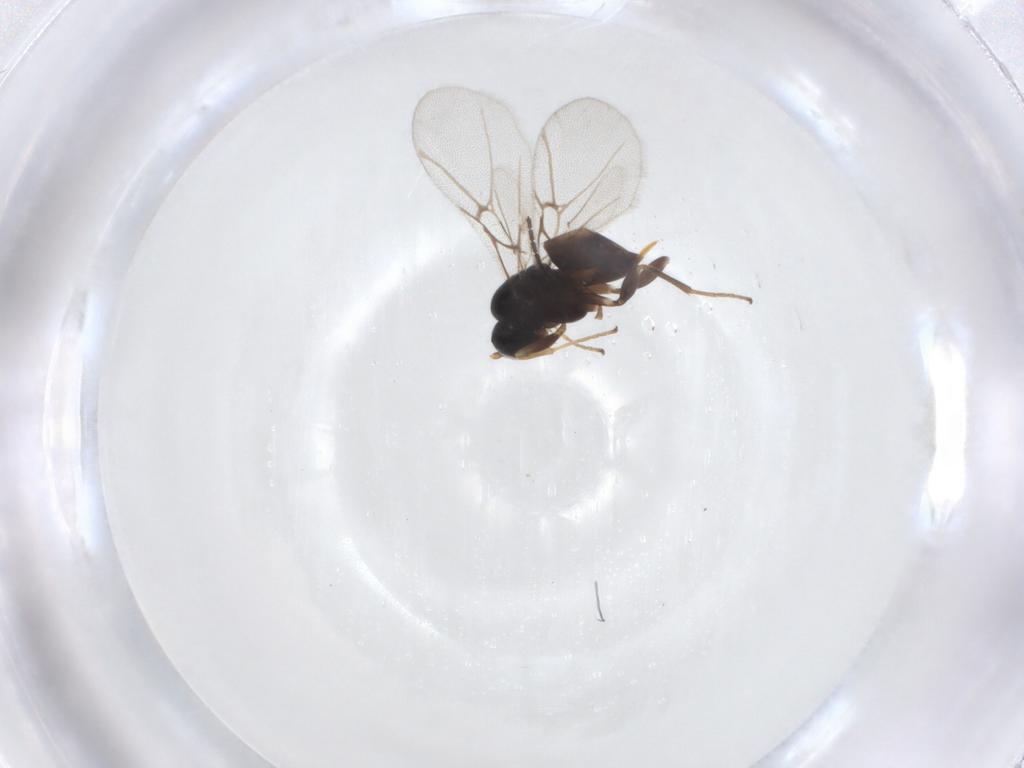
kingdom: Animalia
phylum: Arthropoda
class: Insecta
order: Hymenoptera
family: Cynipidae
